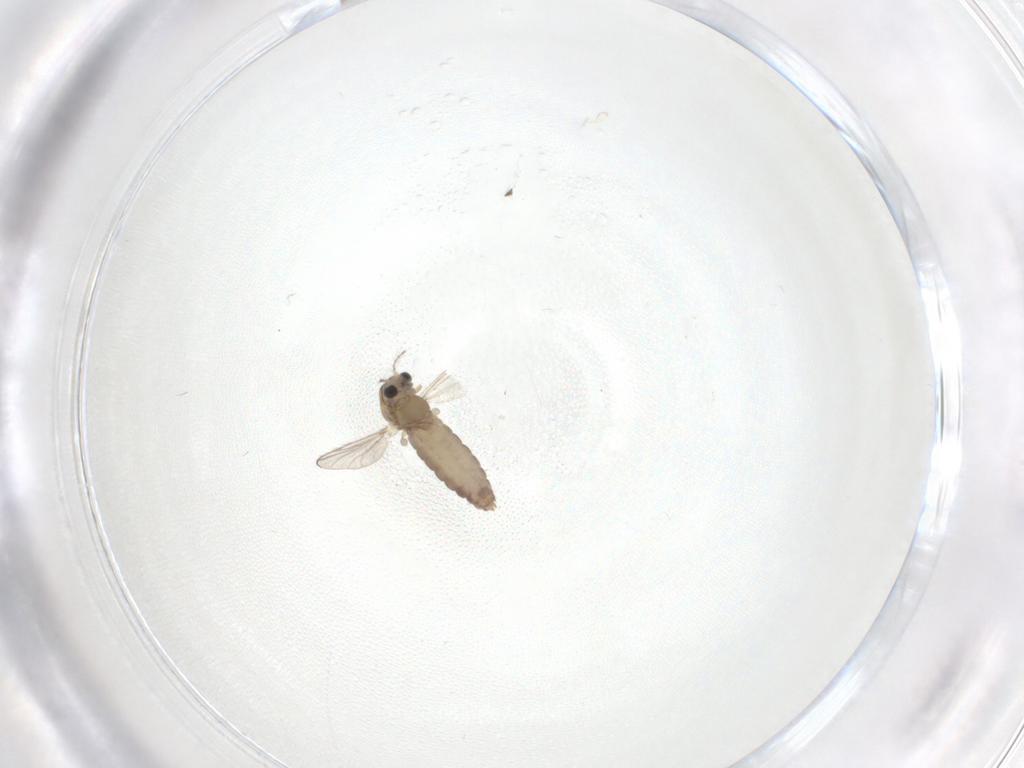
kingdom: Animalia
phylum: Arthropoda
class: Insecta
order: Diptera
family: Chironomidae
